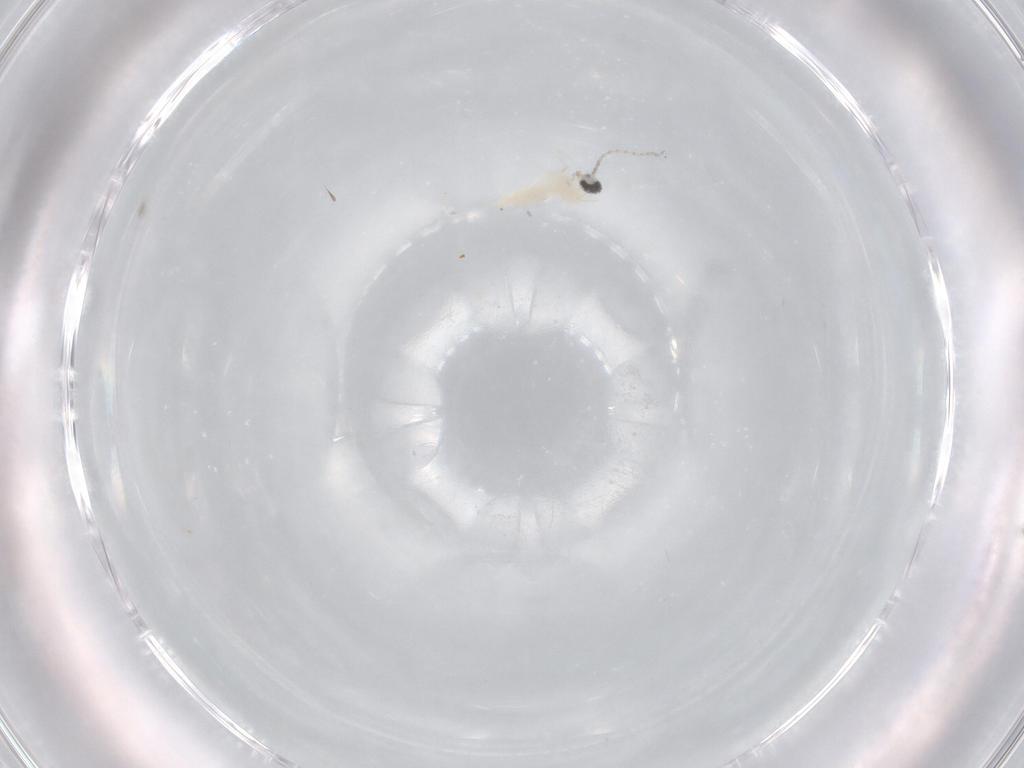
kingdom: Animalia
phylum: Arthropoda
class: Insecta
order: Diptera
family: Cecidomyiidae
